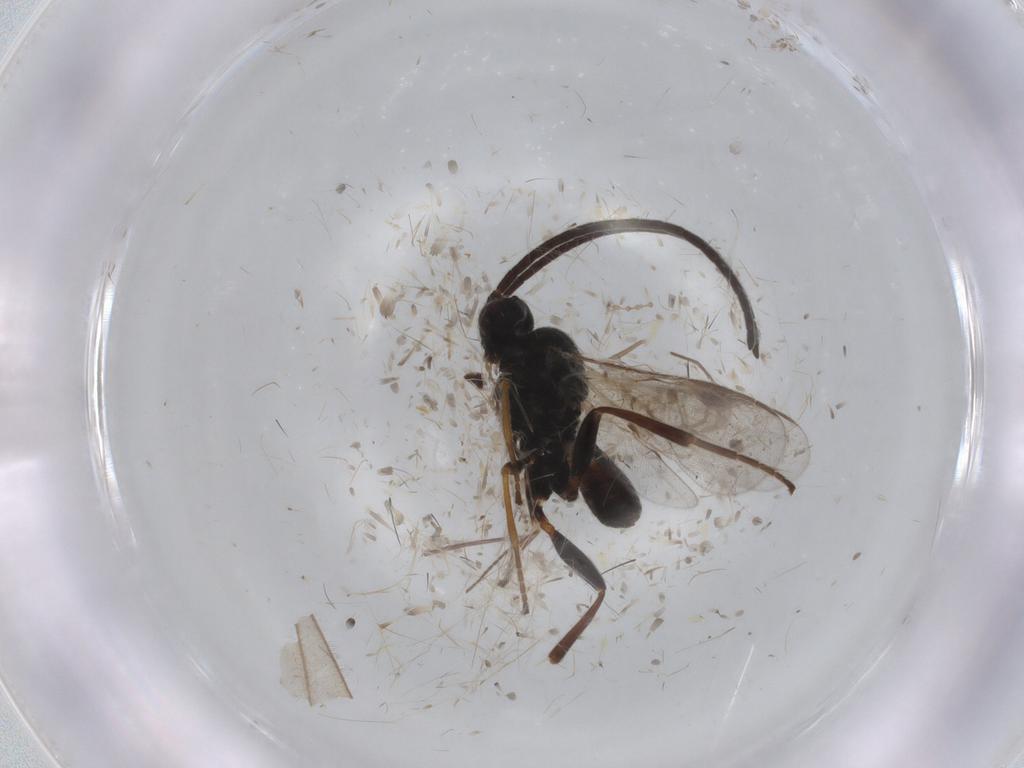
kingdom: Animalia
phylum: Arthropoda
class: Insecta
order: Hymenoptera
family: Braconidae
